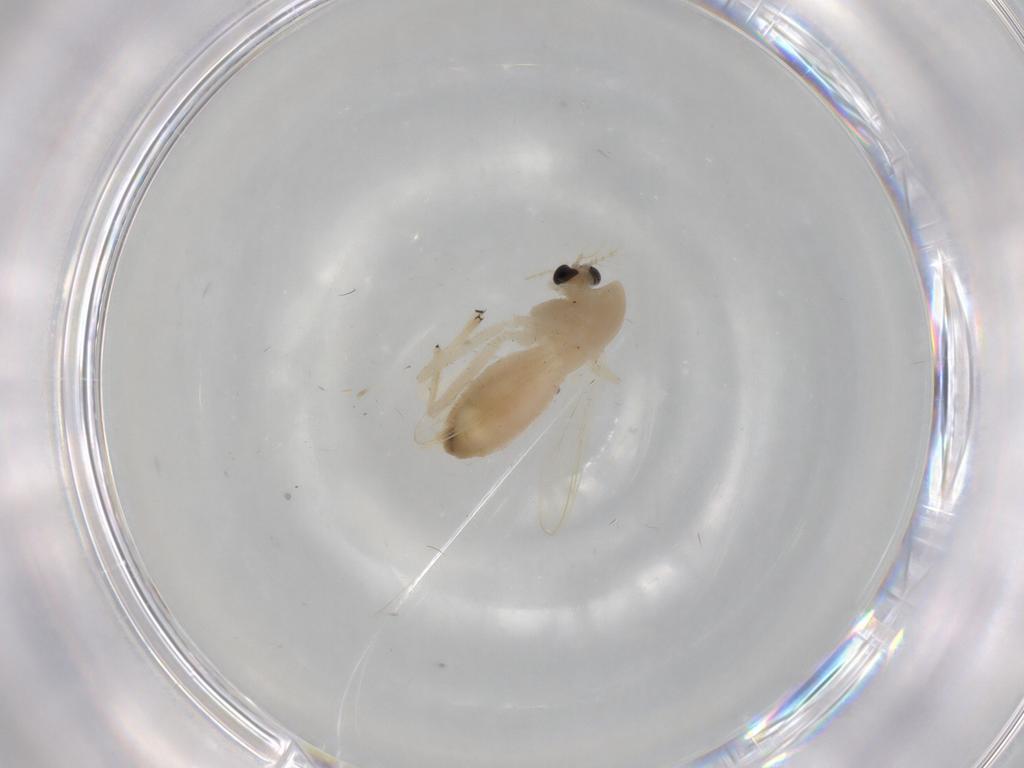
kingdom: Animalia
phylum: Arthropoda
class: Insecta
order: Diptera
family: Chironomidae
